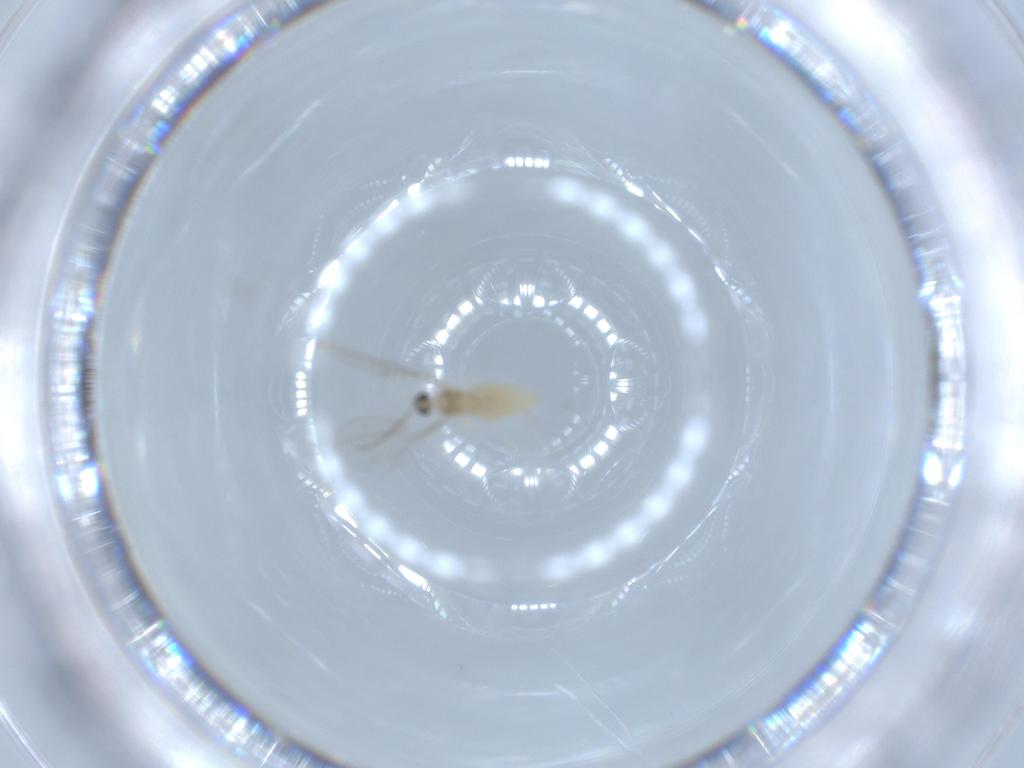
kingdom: Animalia
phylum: Arthropoda
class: Insecta
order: Diptera
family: Cecidomyiidae
